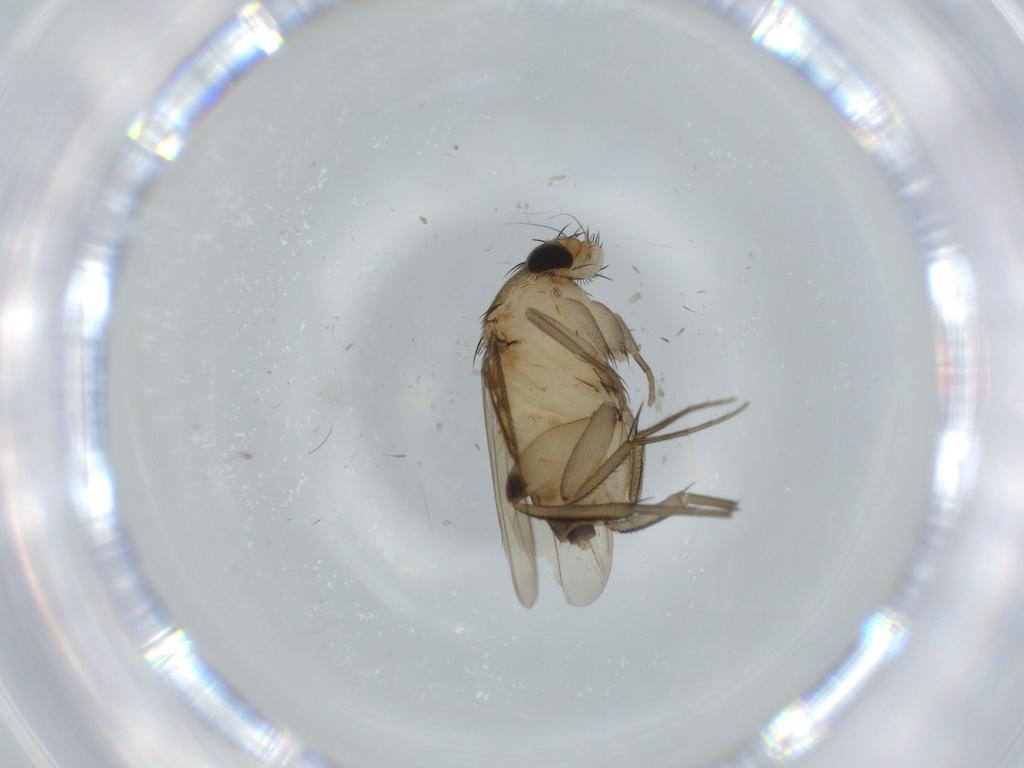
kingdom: Animalia
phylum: Arthropoda
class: Insecta
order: Diptera
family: Phoridae
